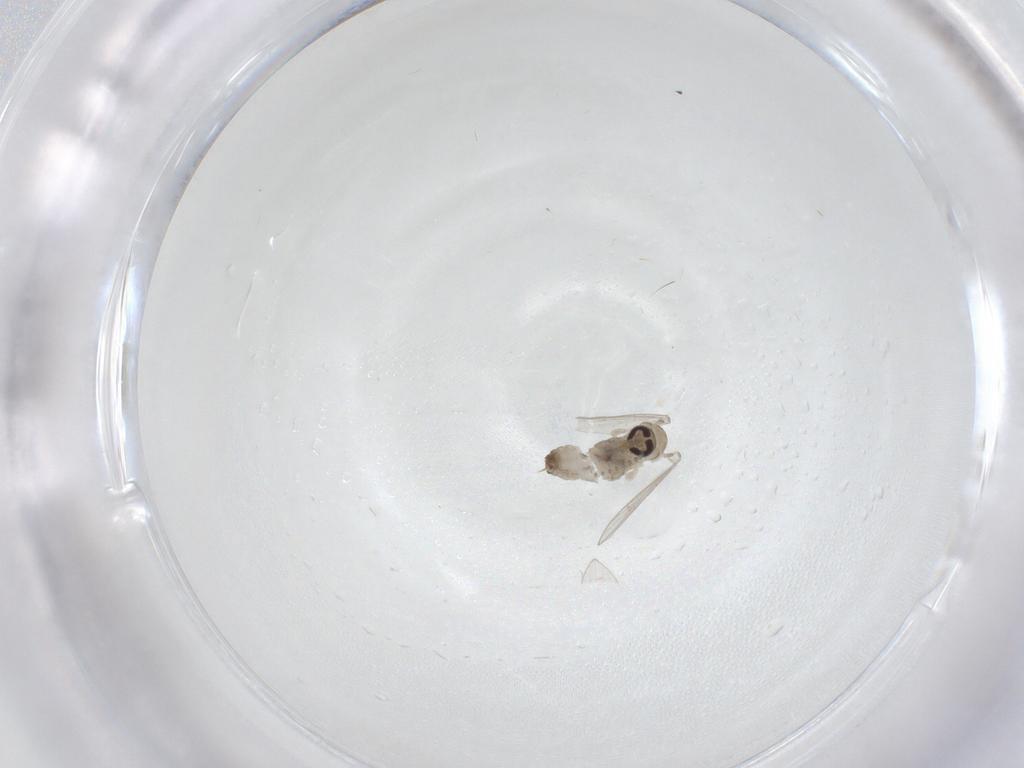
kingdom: Animalia
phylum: Arthropoda
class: Insecta
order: Diptera
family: Psychodidae
